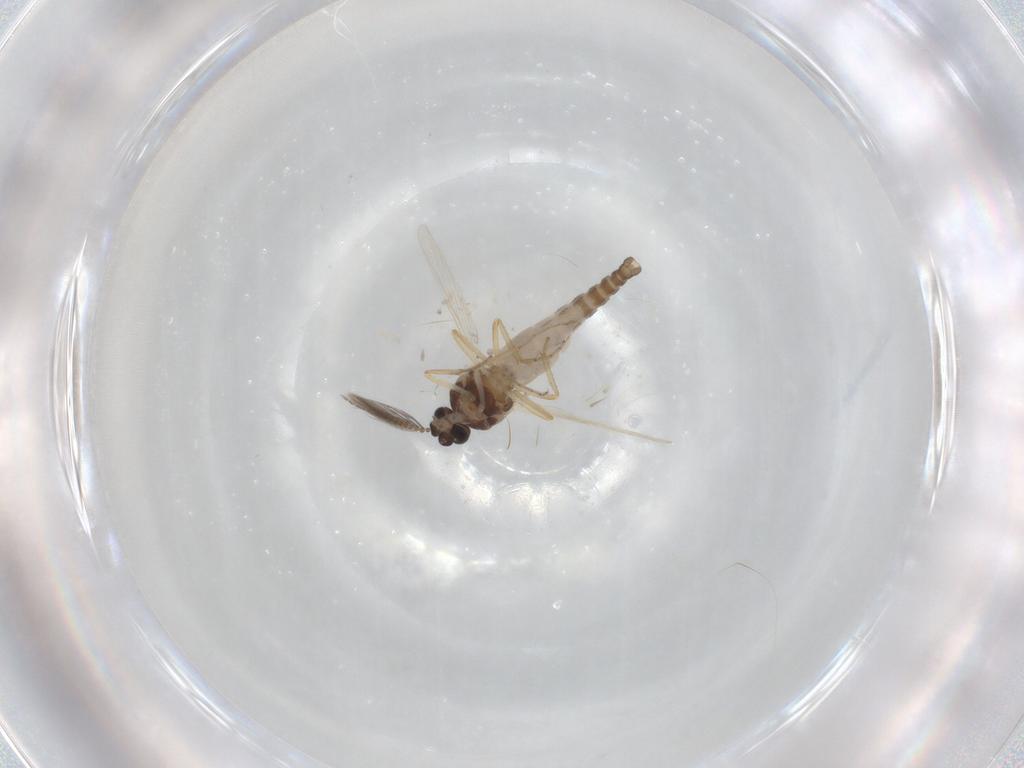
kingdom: Animalia
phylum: Arthropoda
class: Insecta
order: Diptera
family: Ceratopogonidae
